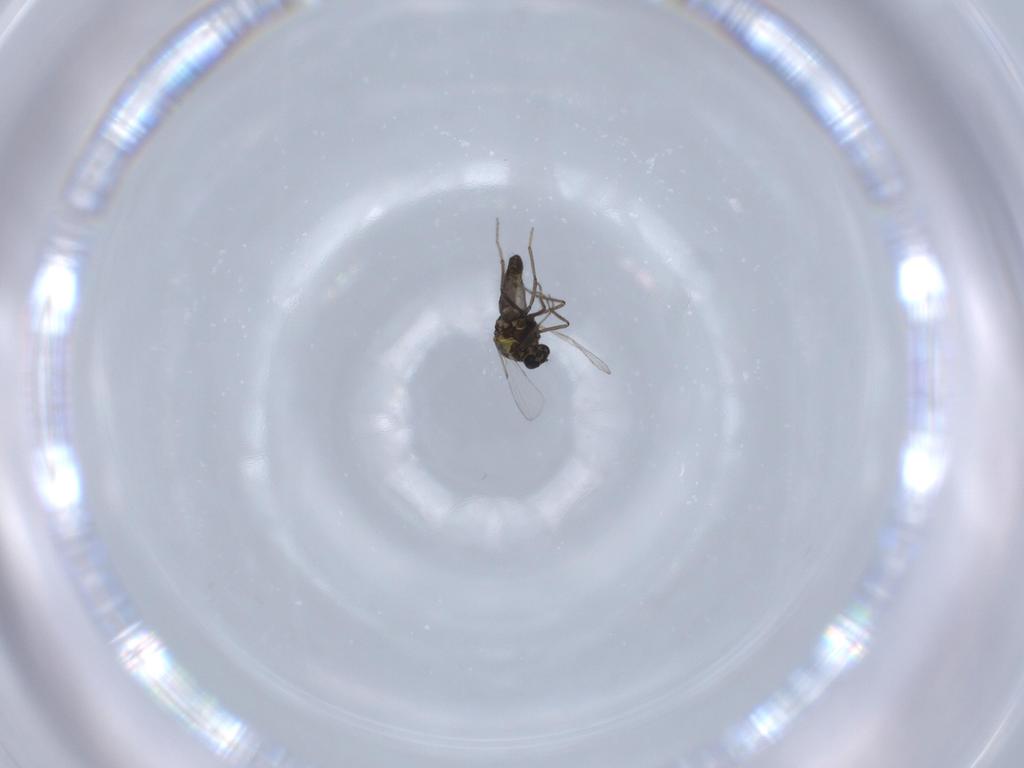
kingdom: Animalia
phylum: Arthropoda
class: Insecta
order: Diptera
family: Ceratopogonidae
